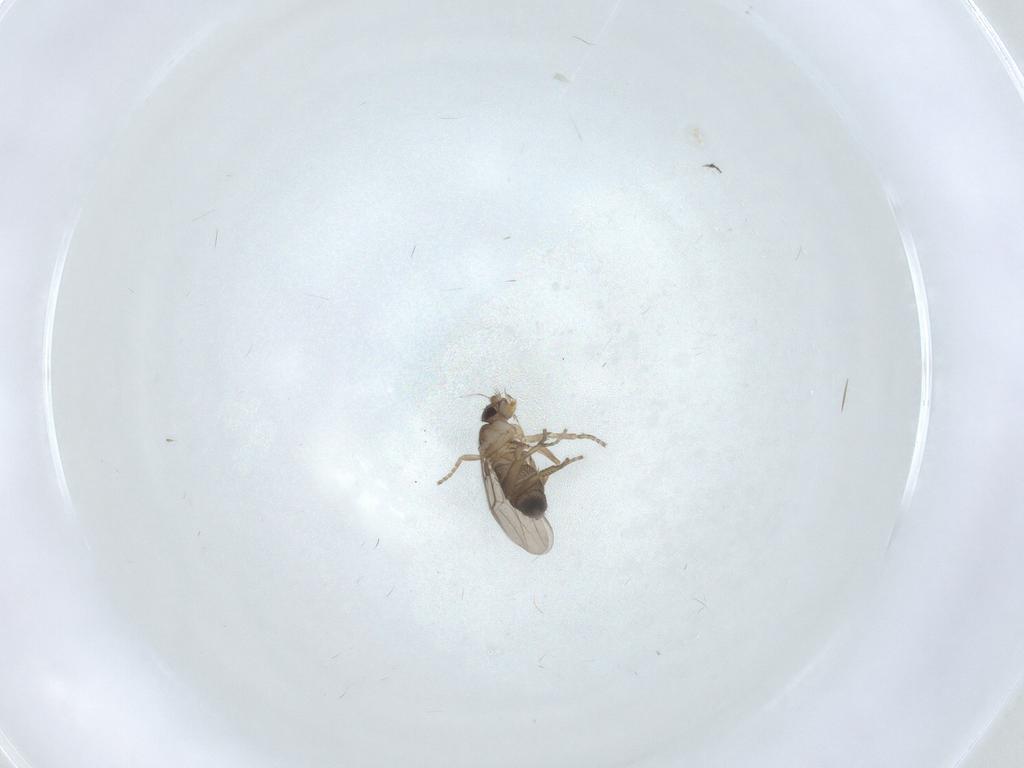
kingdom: Animalia
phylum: Arthropoda
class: Insecta
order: Diptera
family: Phoridae
